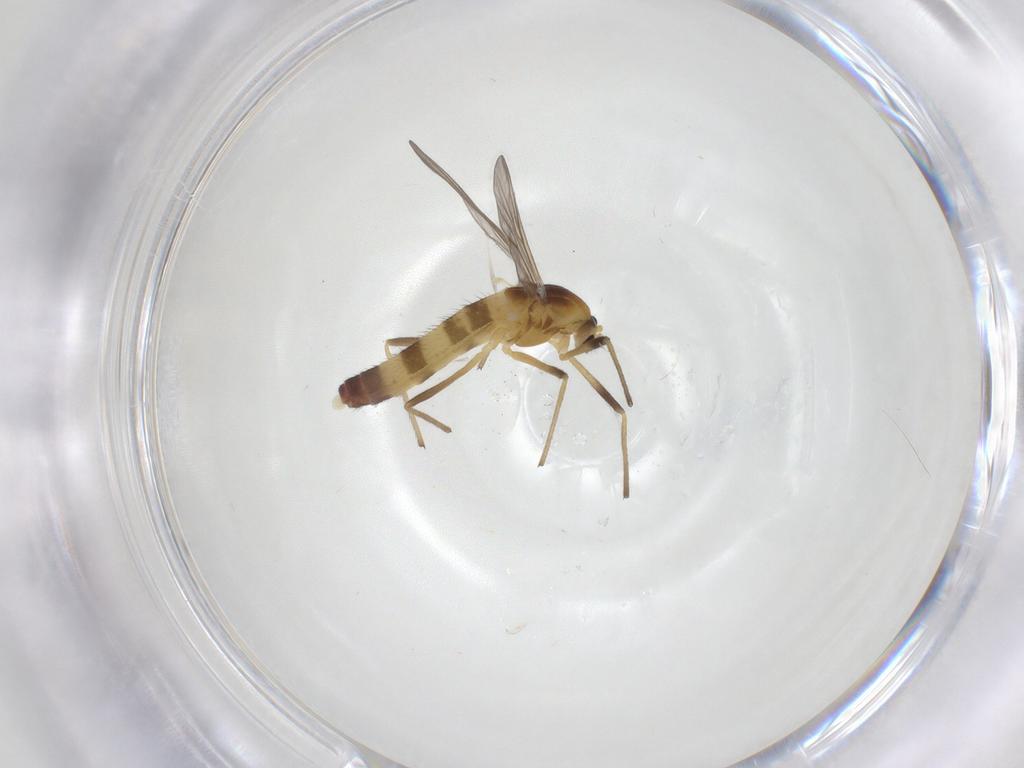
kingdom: Animalia
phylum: Arthropoda
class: Insecta
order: Diptera
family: Chironomidae
